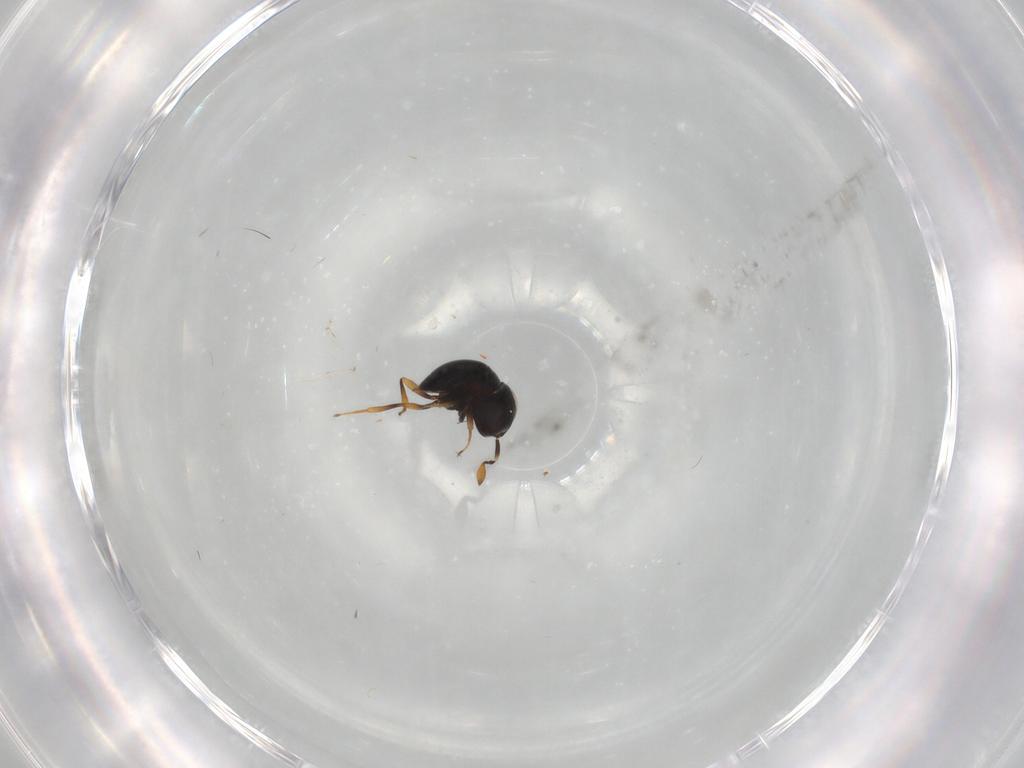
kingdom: Animalia
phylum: Arthropoda
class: Insecta
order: Hymenoptera
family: Scelionidae
